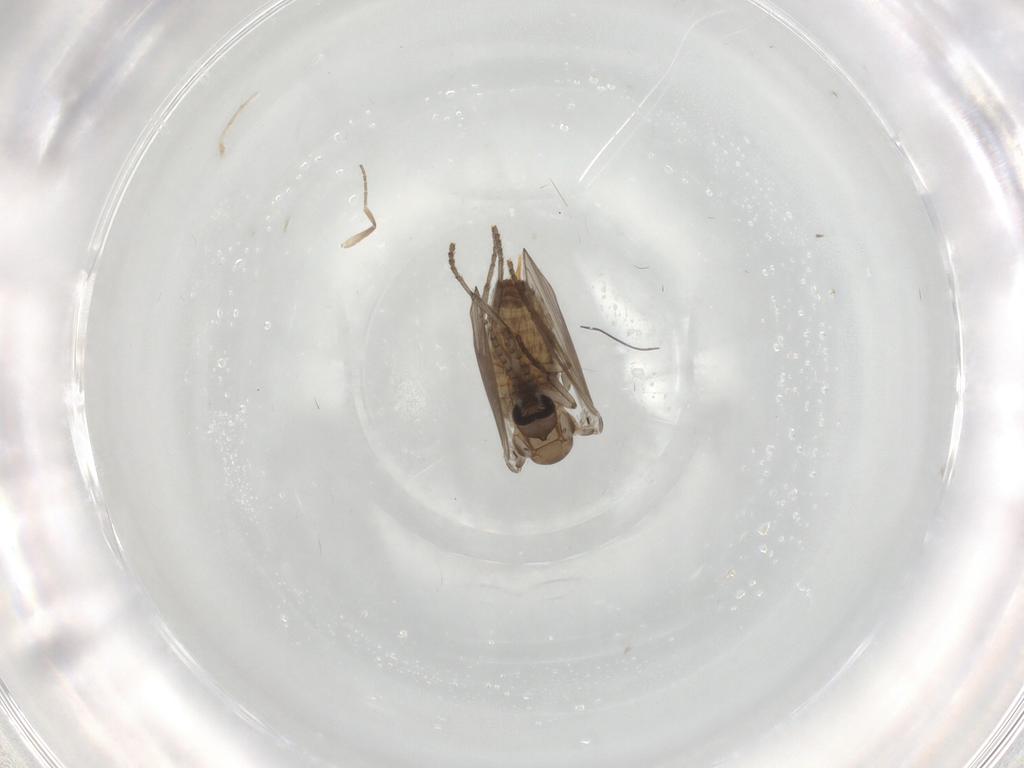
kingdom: Animalia
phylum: Arthropoda
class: Insecta
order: Diptera
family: Psychodidae
